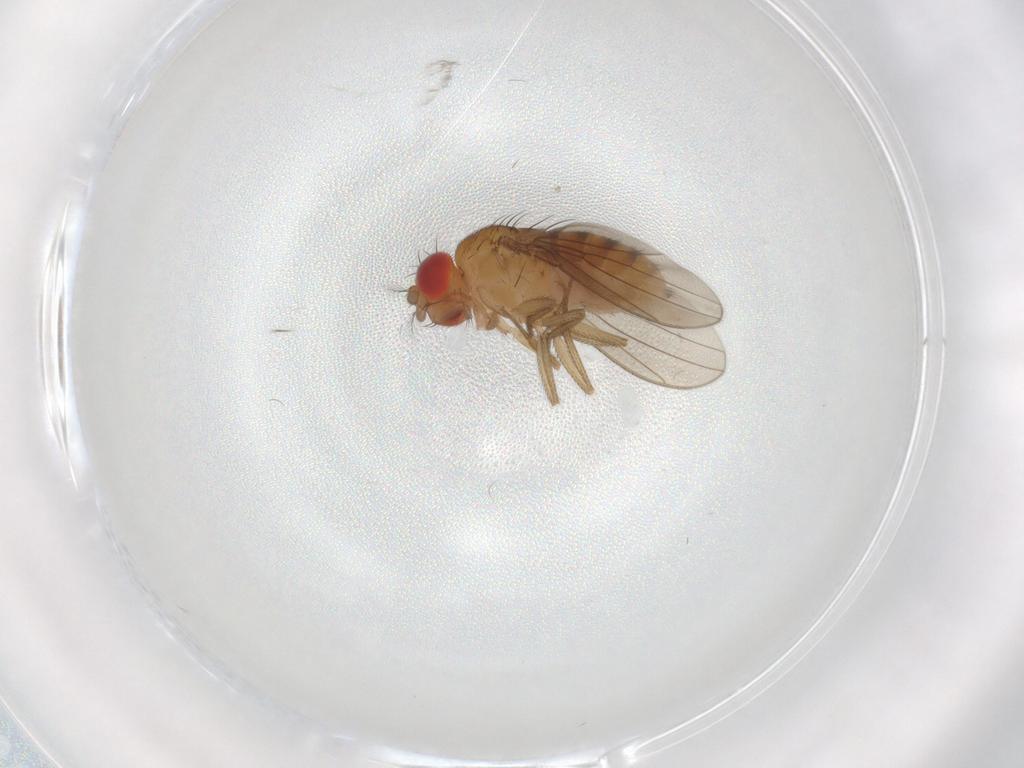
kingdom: Animalia
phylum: Arthropoda
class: Insecta
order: Diptera
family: Drosophilidae
